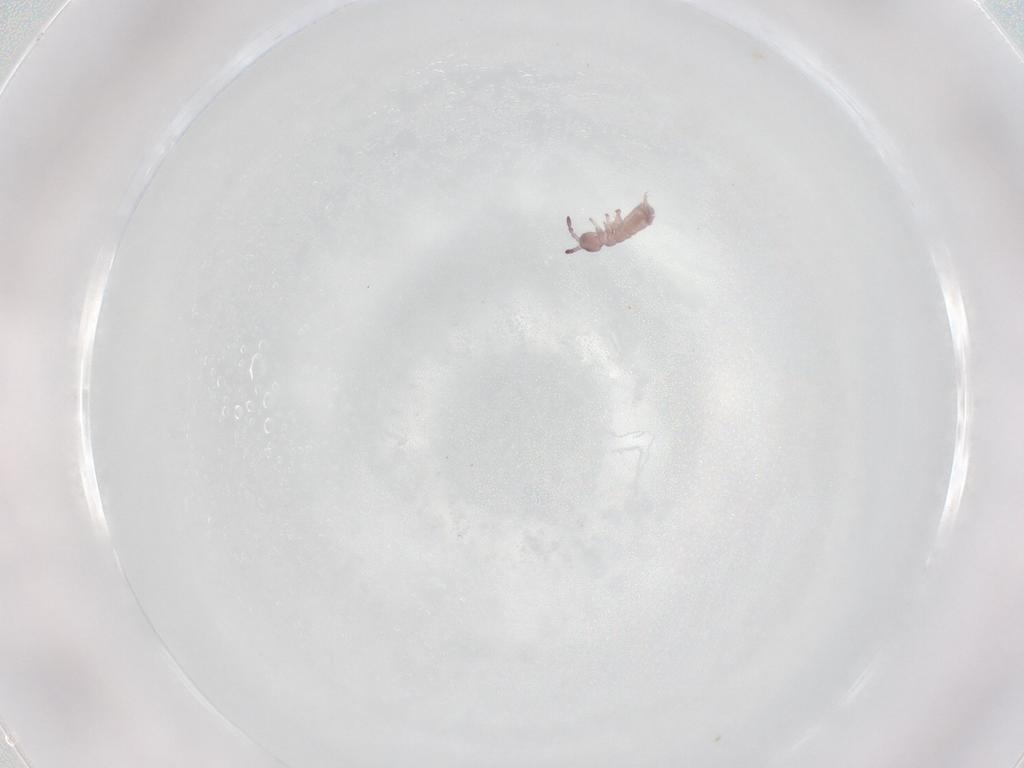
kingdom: Animalia
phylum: Arthropoda
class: Collembola
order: Entomobryomorpha
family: Isotomidae
